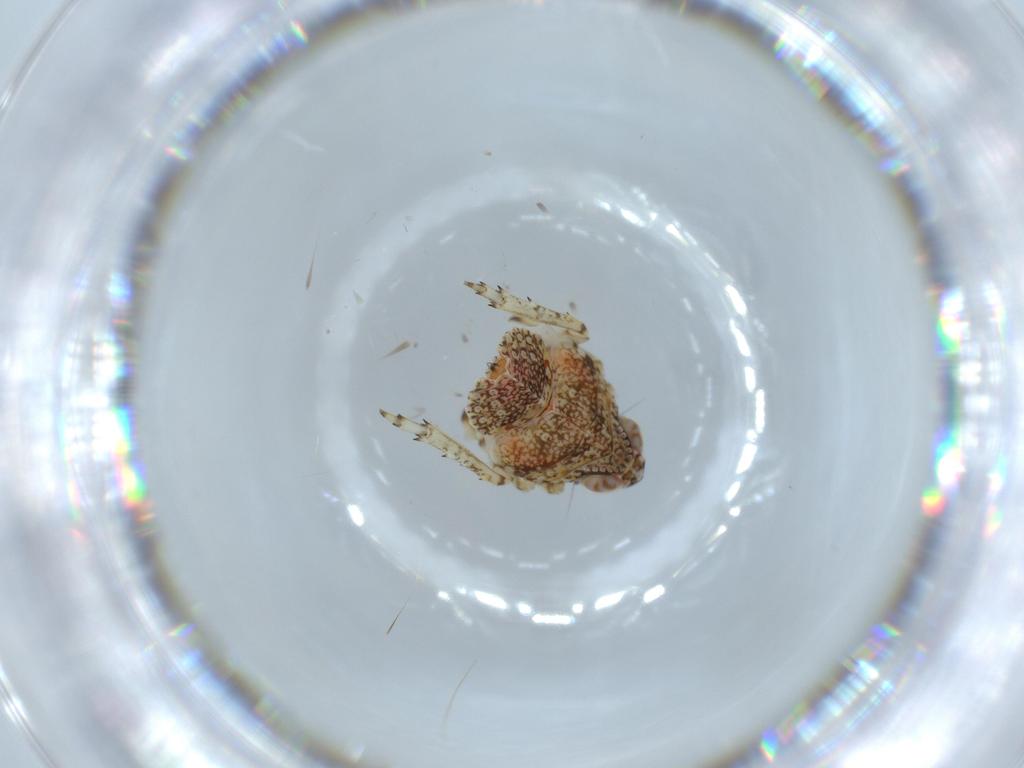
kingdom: Animalia
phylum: Arthropoda
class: Insecta
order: Hemiptera
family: Issidae
